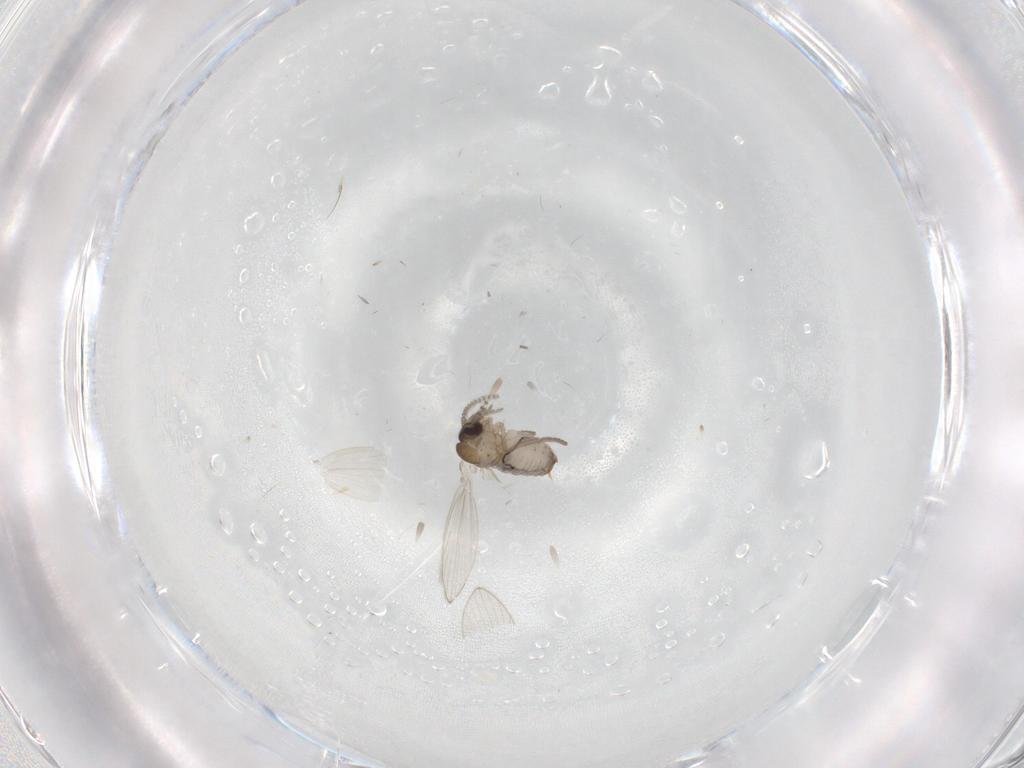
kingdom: Animalia
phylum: Arthropoda
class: Insecta
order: Diptera
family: Psychodidae
